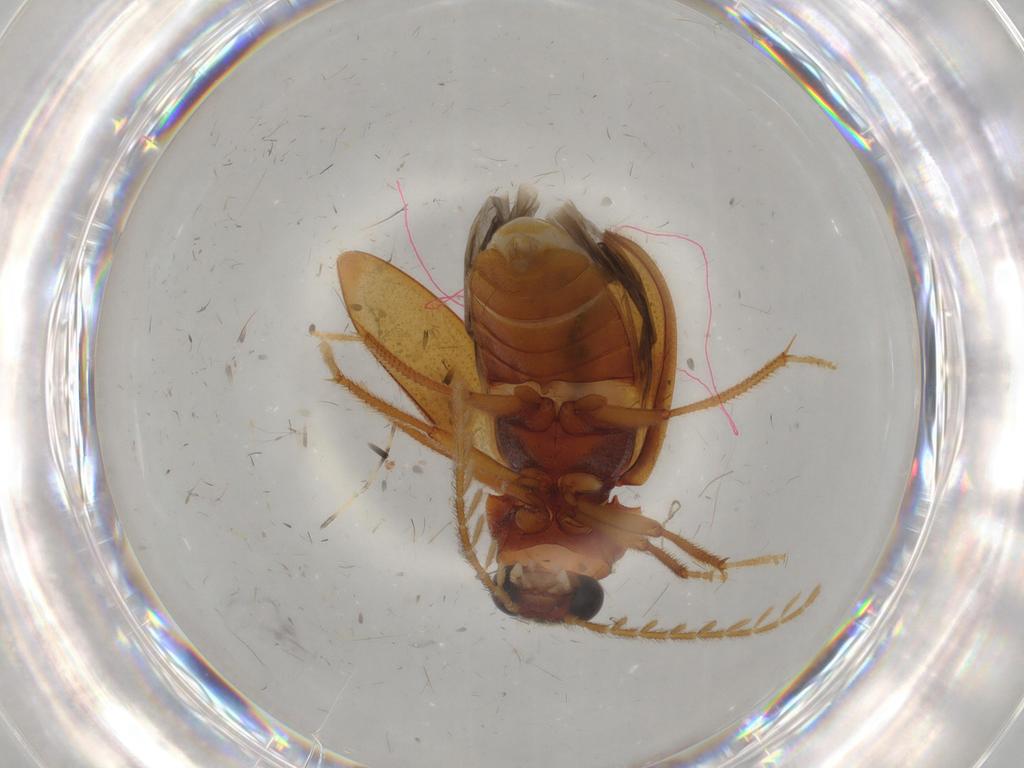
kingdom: Animalia
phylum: Arthropoda
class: Insecta
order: Coleoptera
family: Ptilodactylidae
